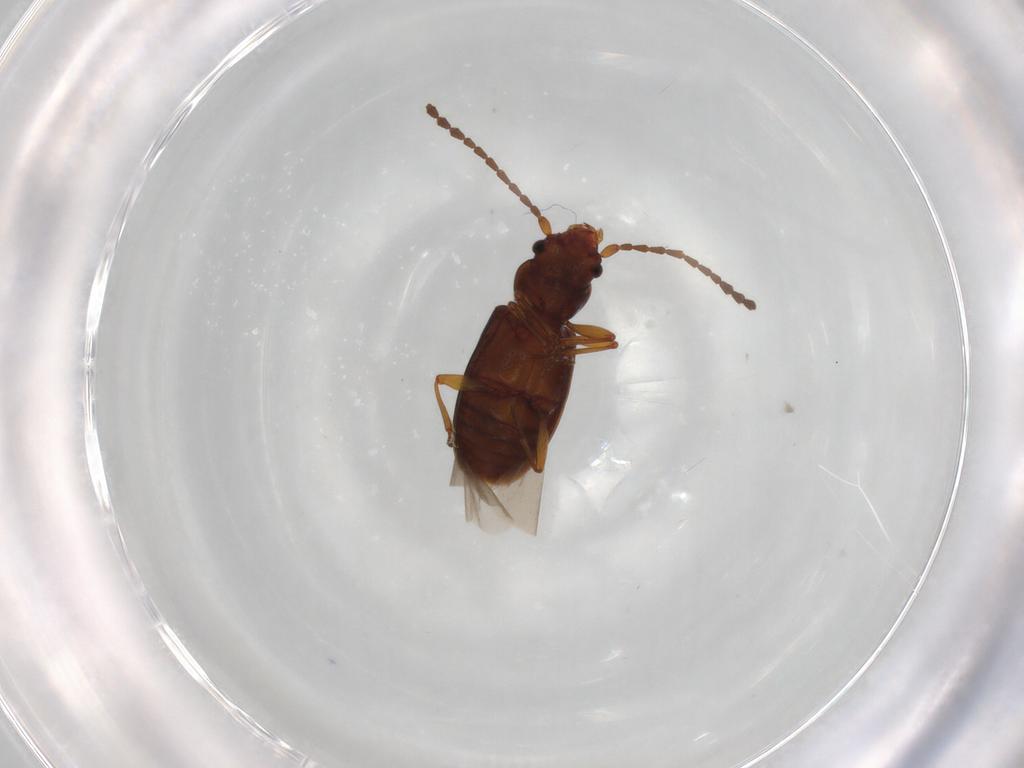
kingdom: Animalia
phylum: Arthropoda
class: Insecta
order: Coleoptera
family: Laemophloeidae
